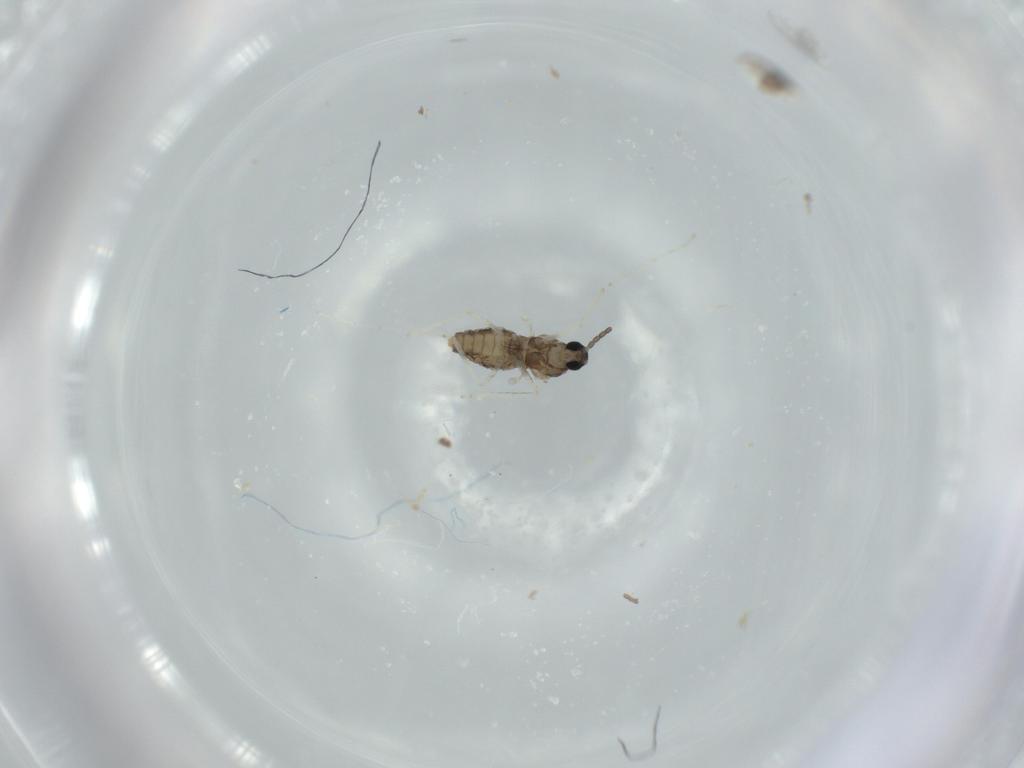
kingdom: Animalia
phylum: Arthropoda
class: Insecta
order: Diptera
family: Cecidomyiidae
